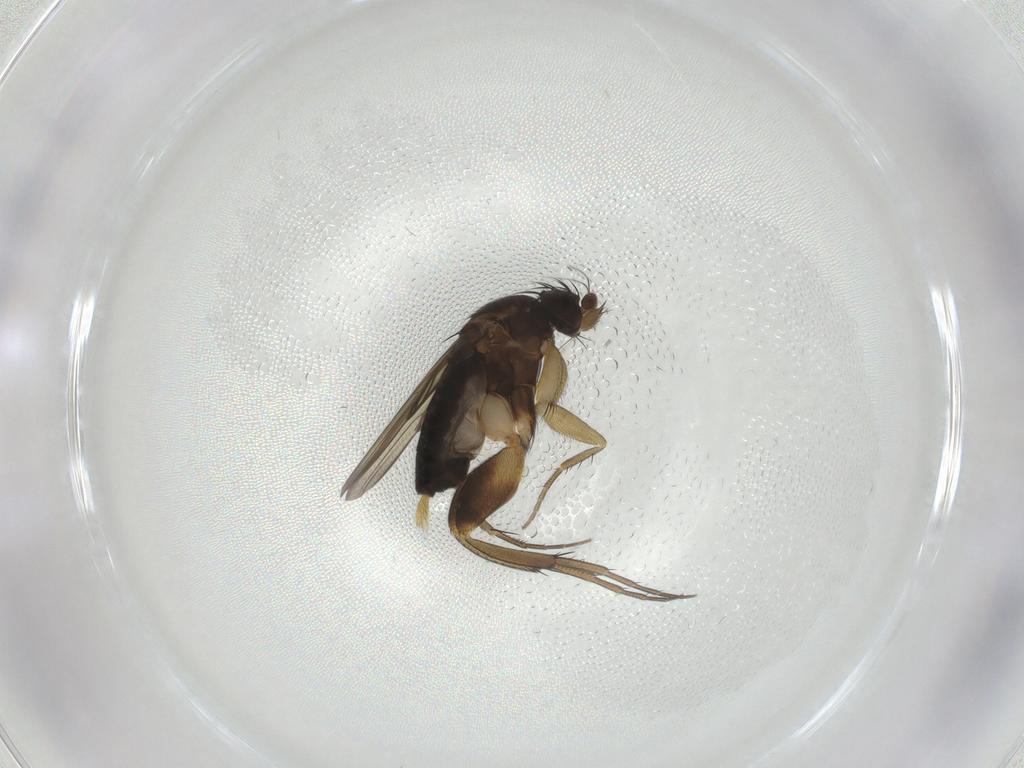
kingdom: Animalia
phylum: Arthropoda
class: Insecta
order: Diptera
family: Phoridae
